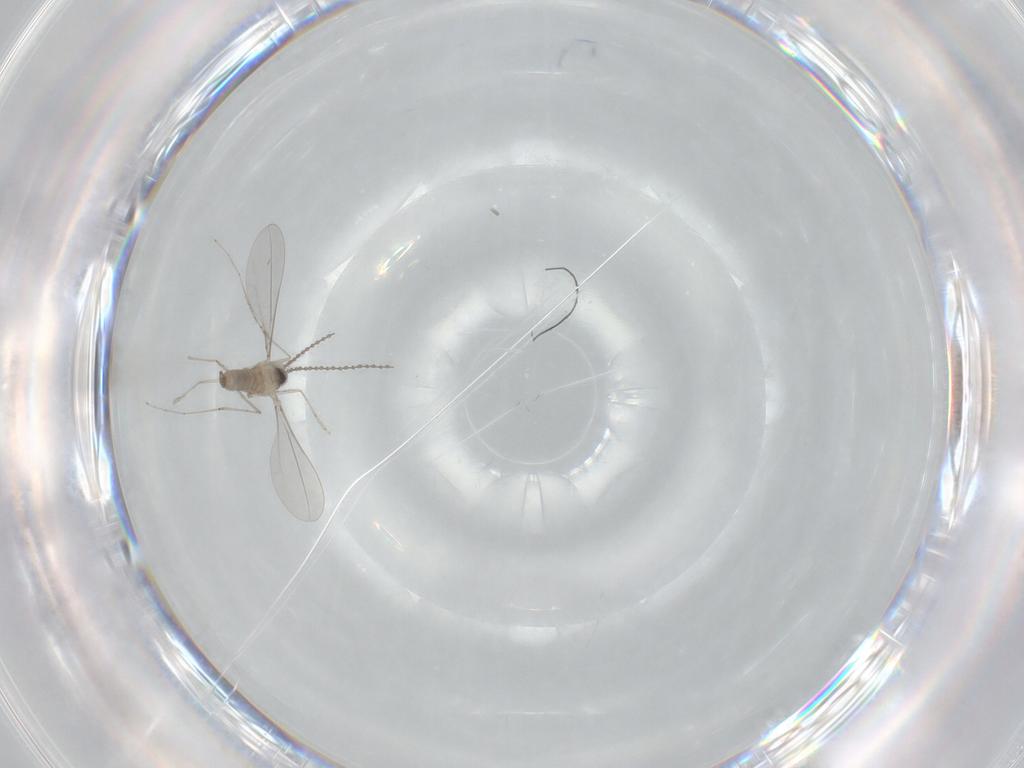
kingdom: Animalia
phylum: Arthropoda
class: Insecta
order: Diptera
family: Cecidomyiidae
